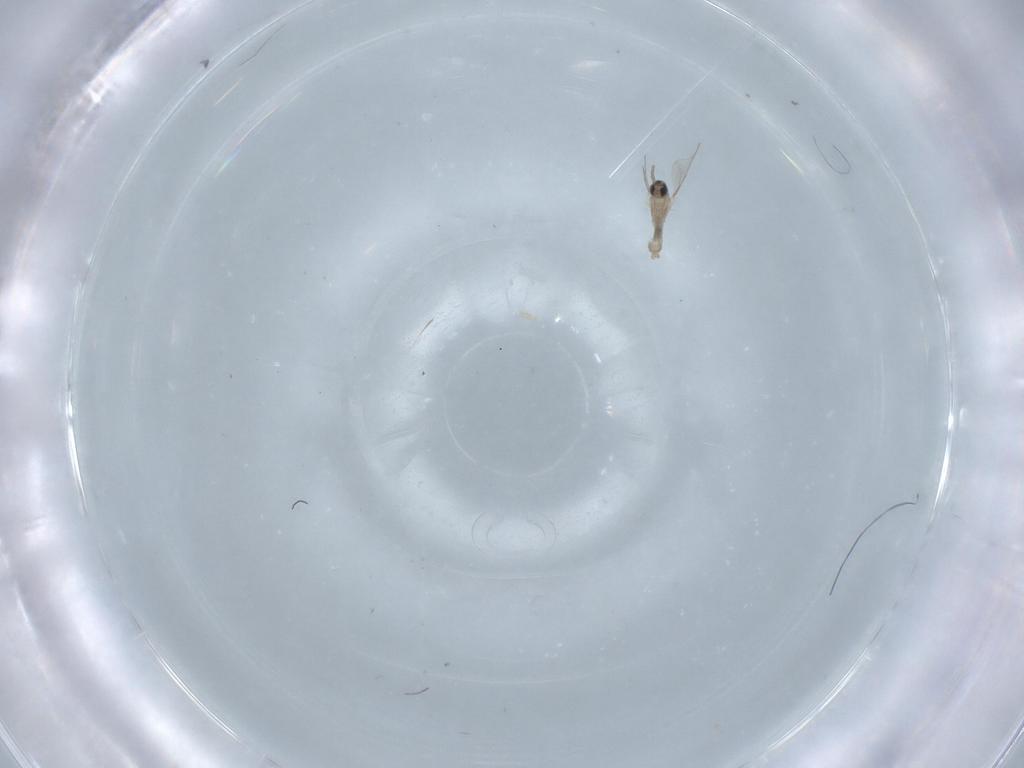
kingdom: Animalia
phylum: Arthropoda
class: Insecta
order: Diptera
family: Cecidomyiidae
